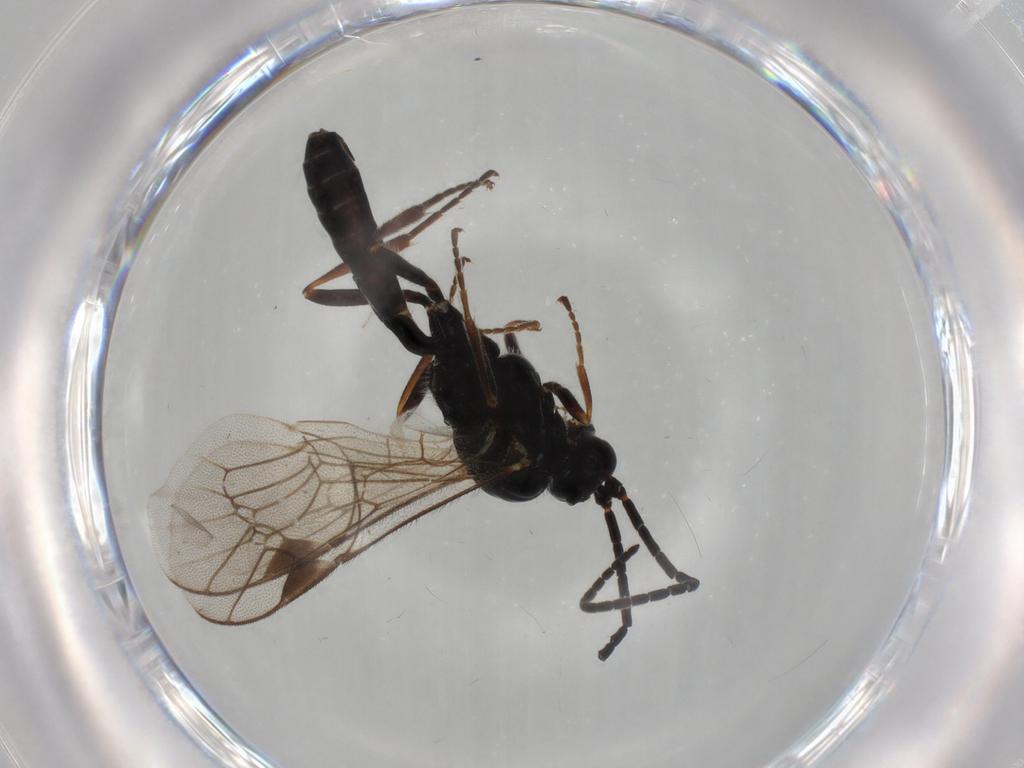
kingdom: Animalia
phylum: Arthropoda
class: Insecta
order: Hymenoptera
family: Ichneumonidae
